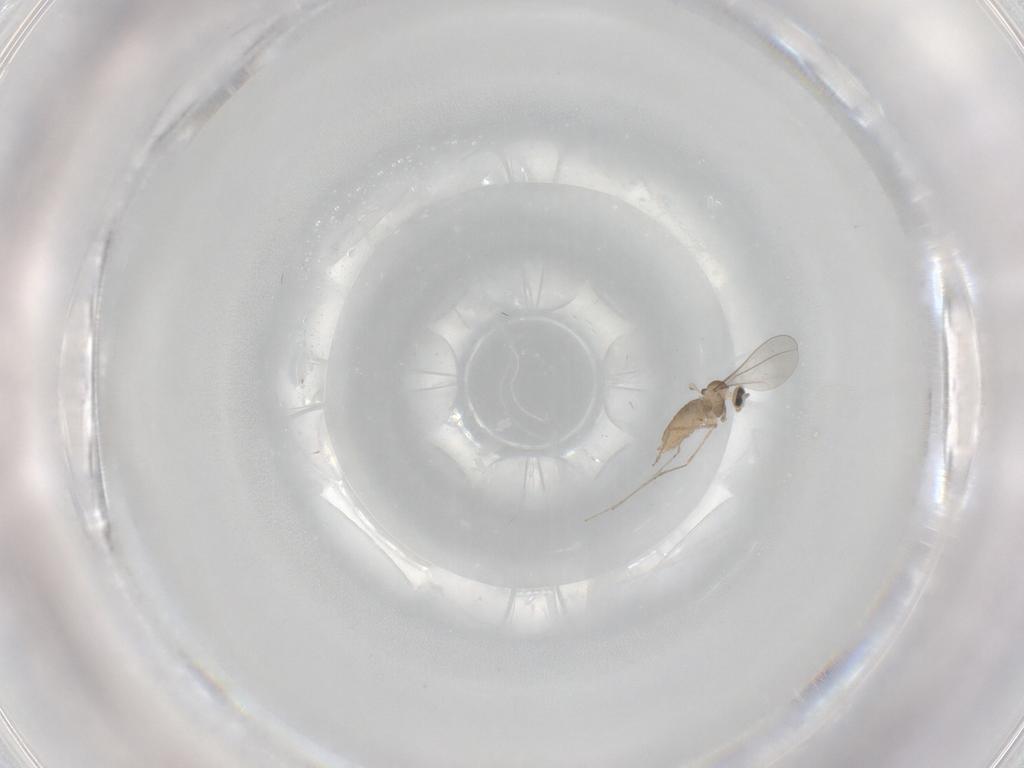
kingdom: Animalia
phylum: Arthropoda
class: Insecta
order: Diptera
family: Cecidomyiidae
